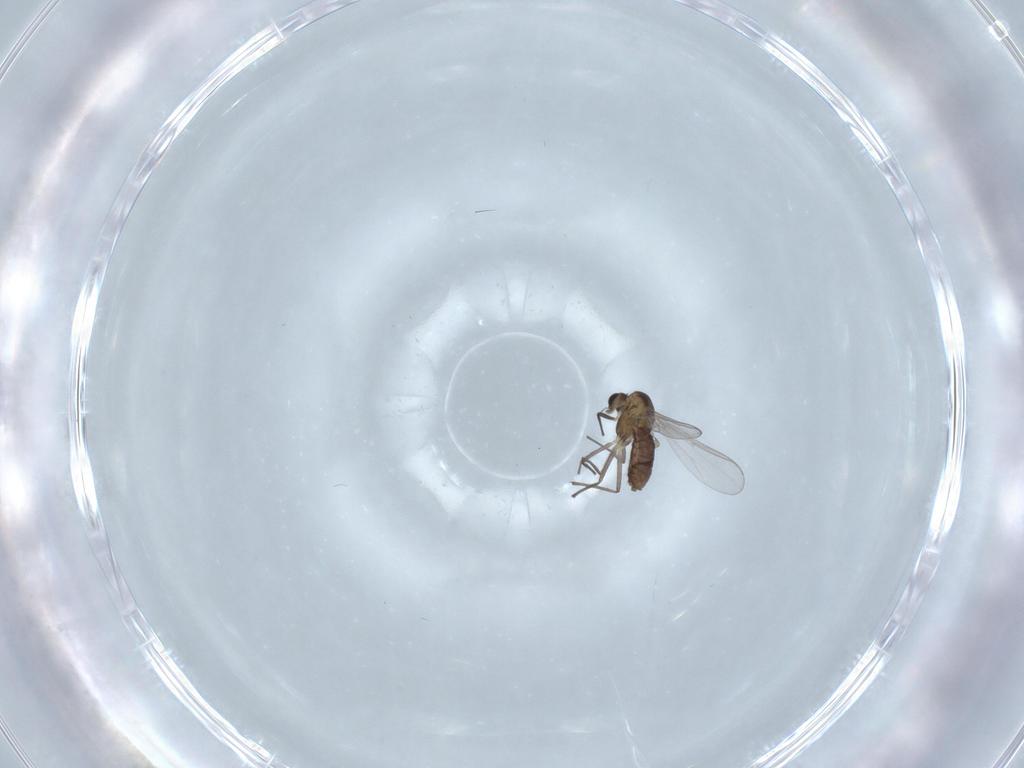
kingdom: Animalia
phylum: Arthropoda
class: Insecta
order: Diptera
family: Chironomidae
